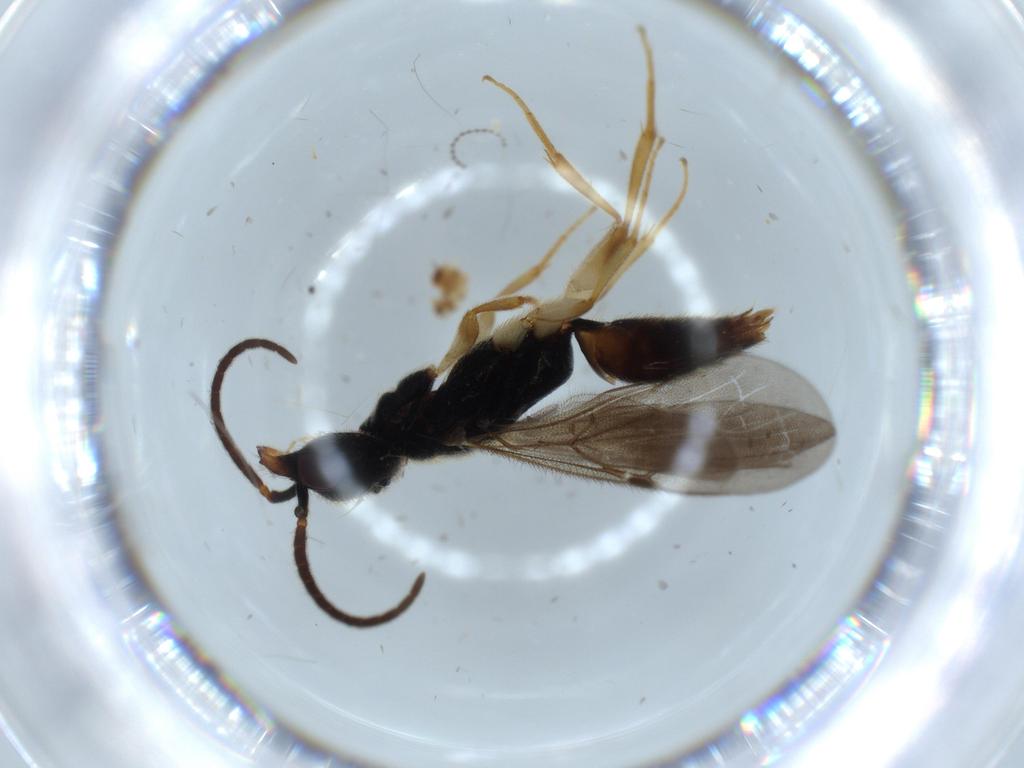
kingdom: Animalia
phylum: Arthropoda
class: Insecta
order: Hymenoptera
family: Bethylidae
